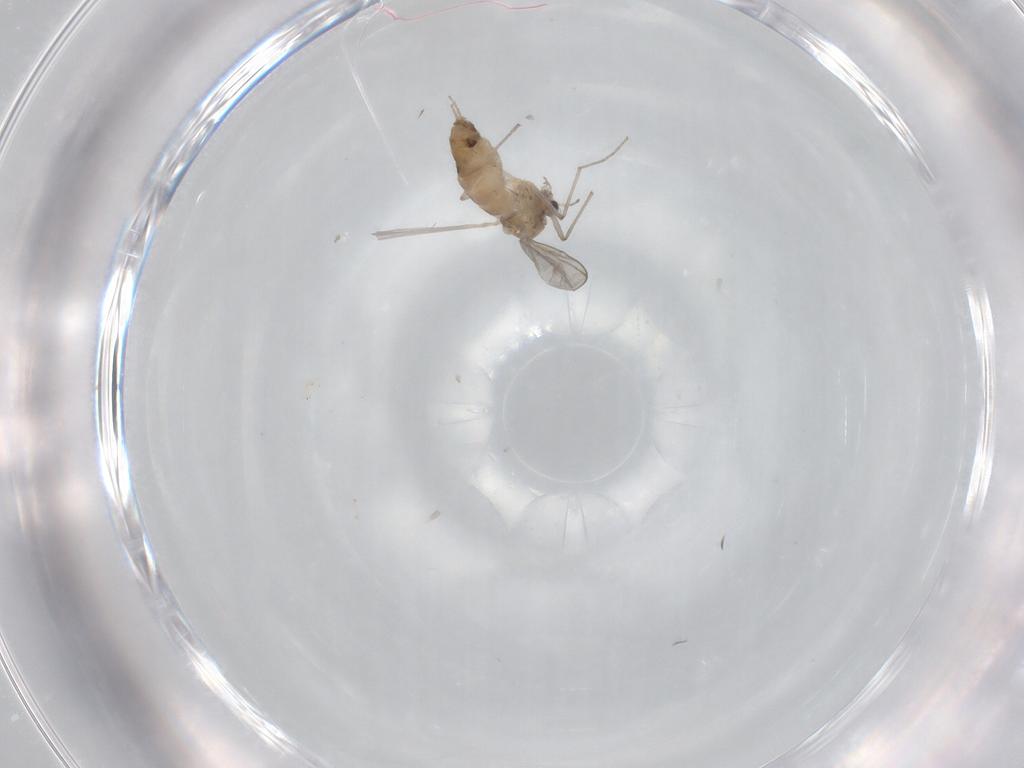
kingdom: Animalia
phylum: Arthropoda
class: Insecta
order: Diptera
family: Chironomidae
